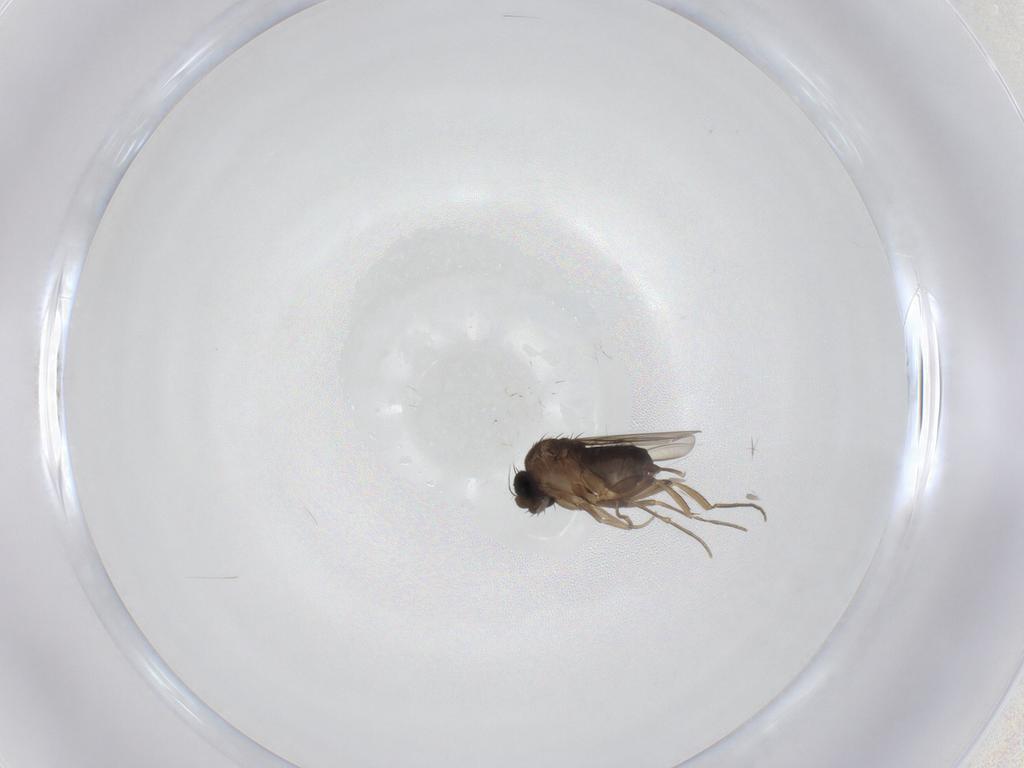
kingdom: Animalia
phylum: Arthropoda
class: Insecta
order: Diptera
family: Sciaridae
